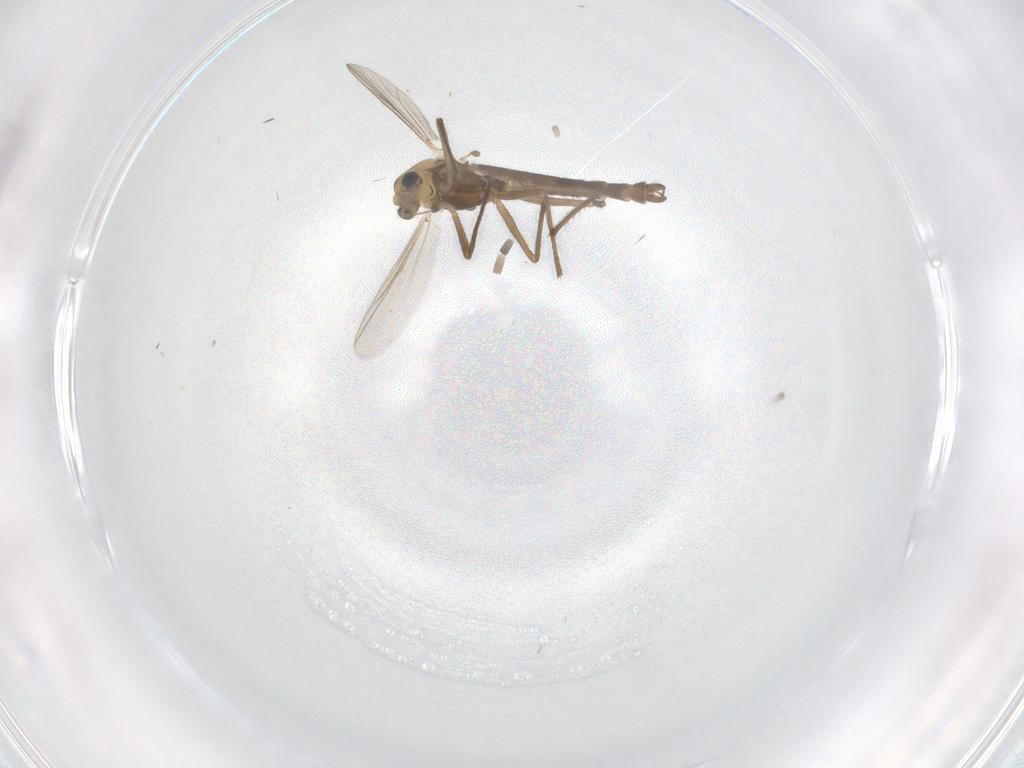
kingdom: Animalia
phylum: Arthropoda
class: Insecta
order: Diptera
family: Chironomidae
